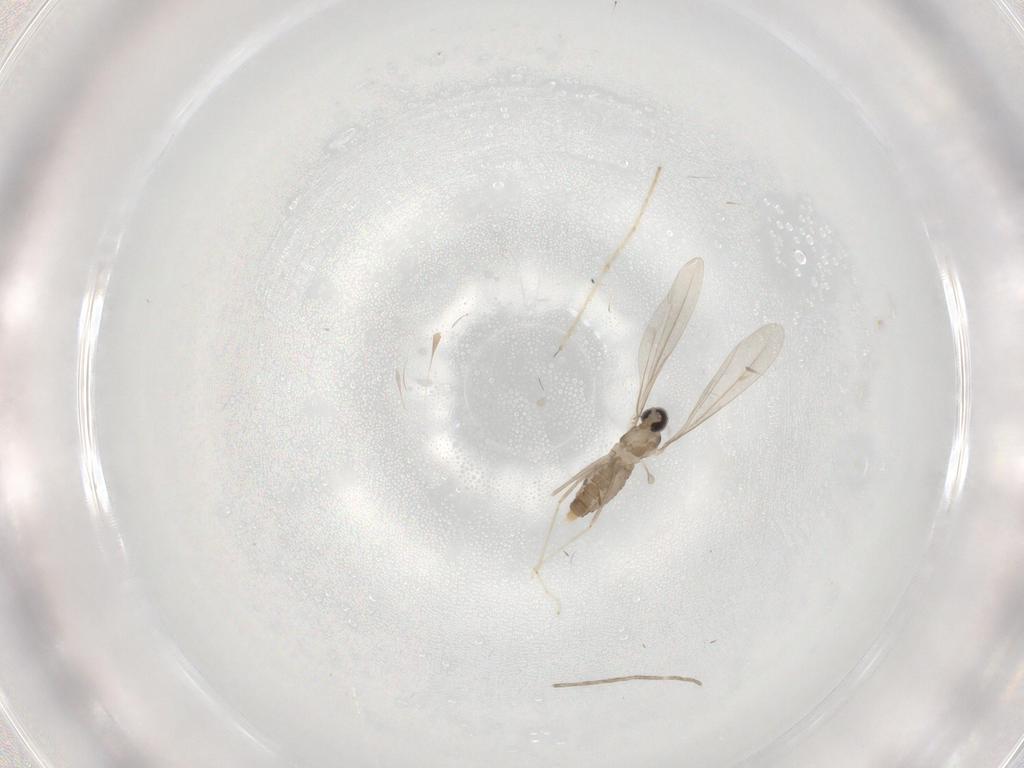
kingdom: Animalia
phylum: Arthropoda
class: Insecta
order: Diptera
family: Cecidomyiidae
